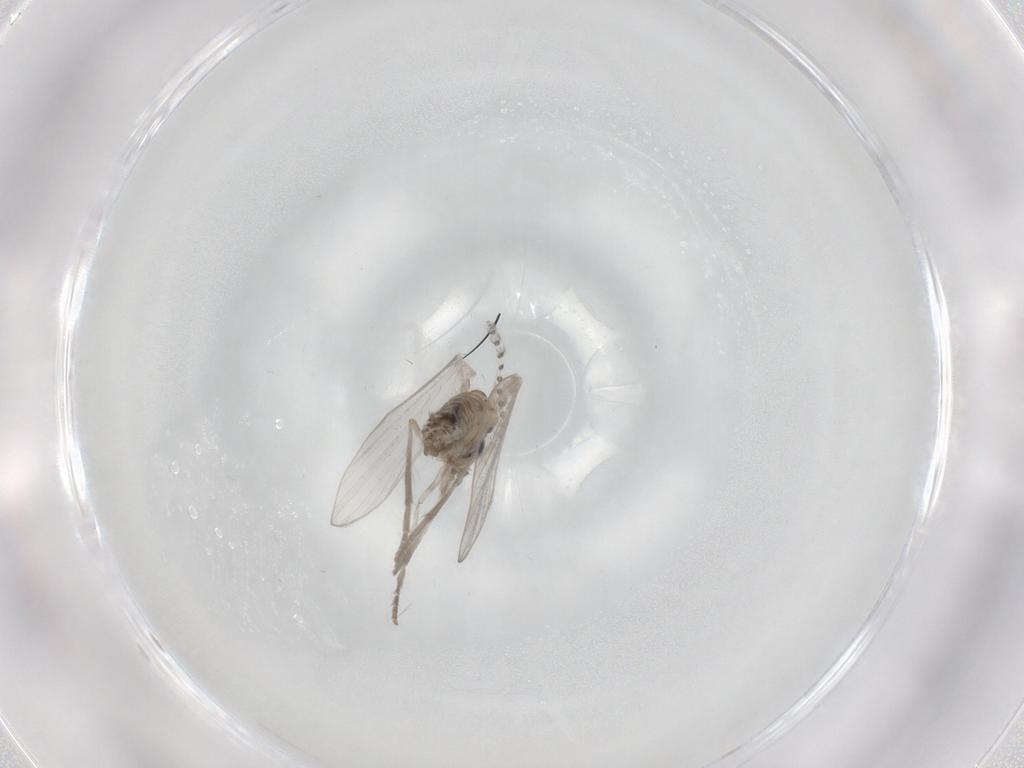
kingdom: Animalia
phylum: Arthropoda
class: Insecta
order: Diptera
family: Psychodidae
